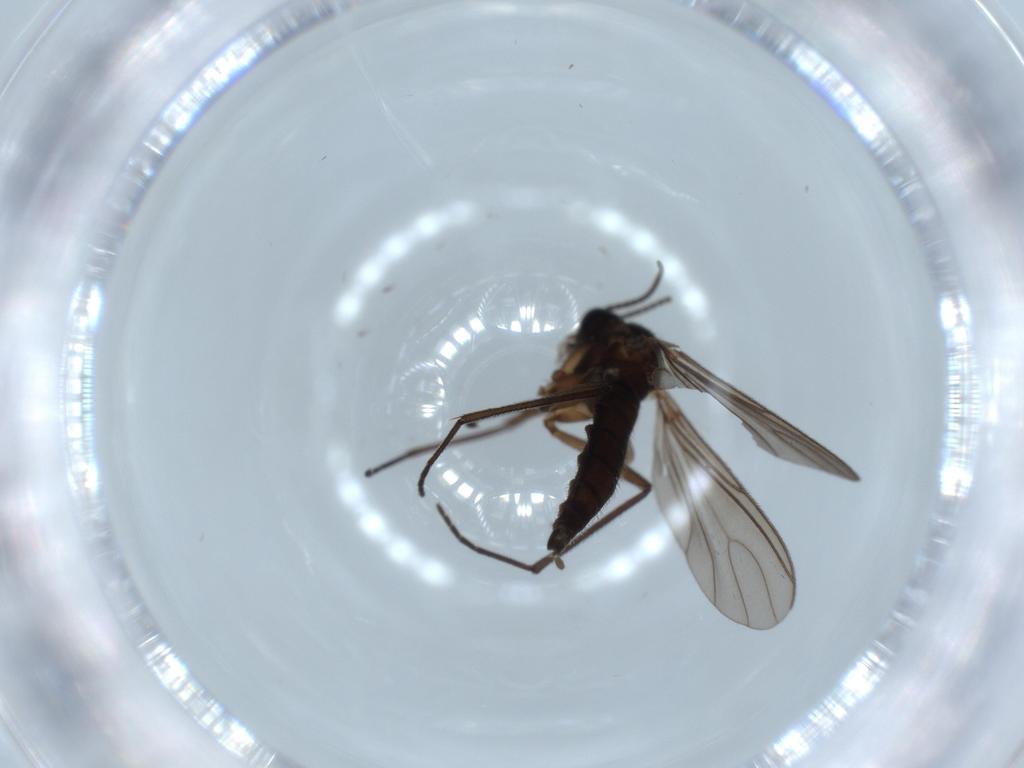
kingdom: Animalia
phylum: Arthropoda
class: Insecta
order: Diptera
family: Sciaridae
